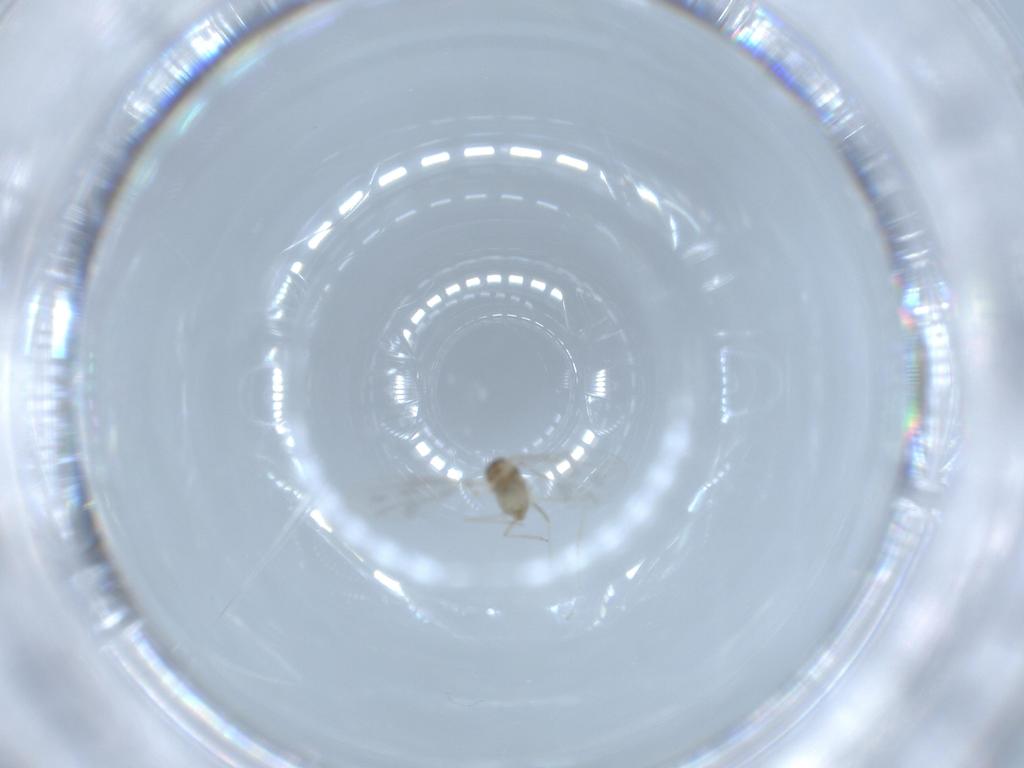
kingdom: Animalia
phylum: Arthropoda
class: Insecta
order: Diptera
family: Cecidomyiidae
